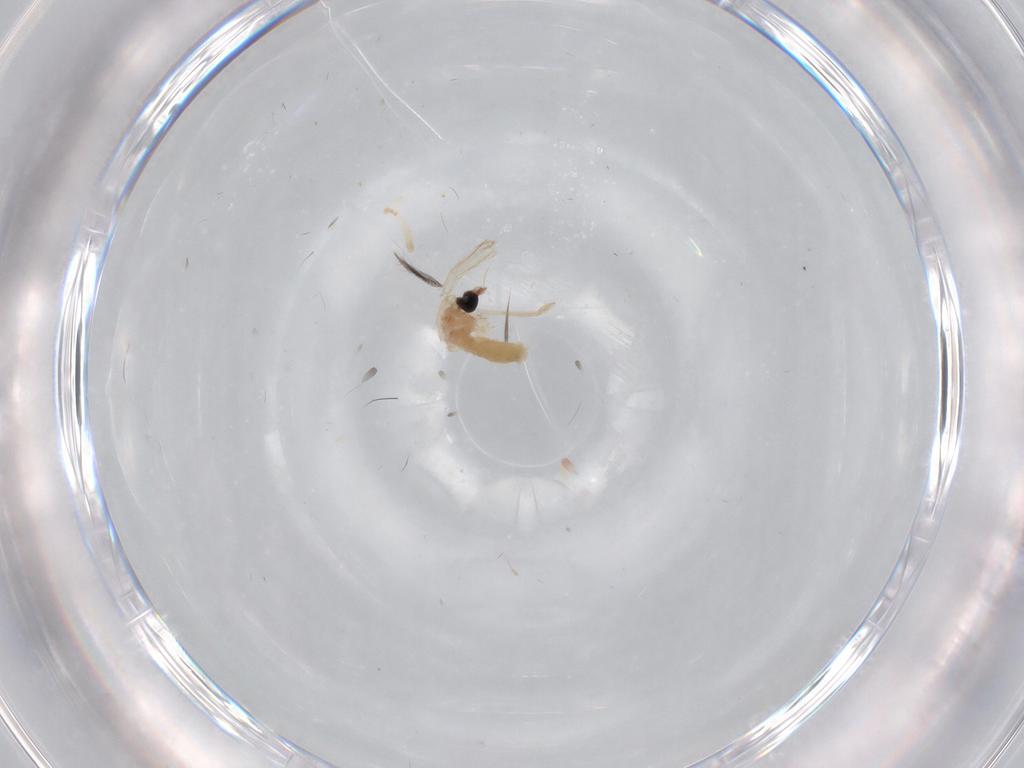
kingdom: Animalia
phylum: Arthropoda
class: Insecta
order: Diptera
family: Chironomidae
